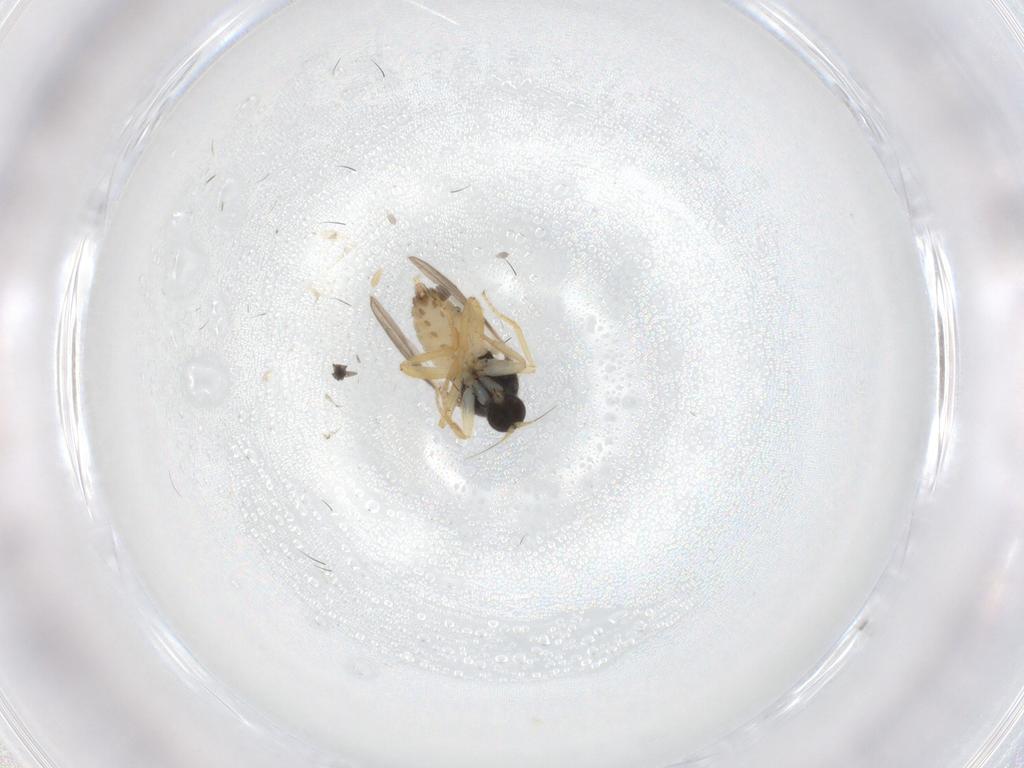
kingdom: Animalia
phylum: Arthropoda
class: Insecta
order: Diptera
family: Hybotidae
